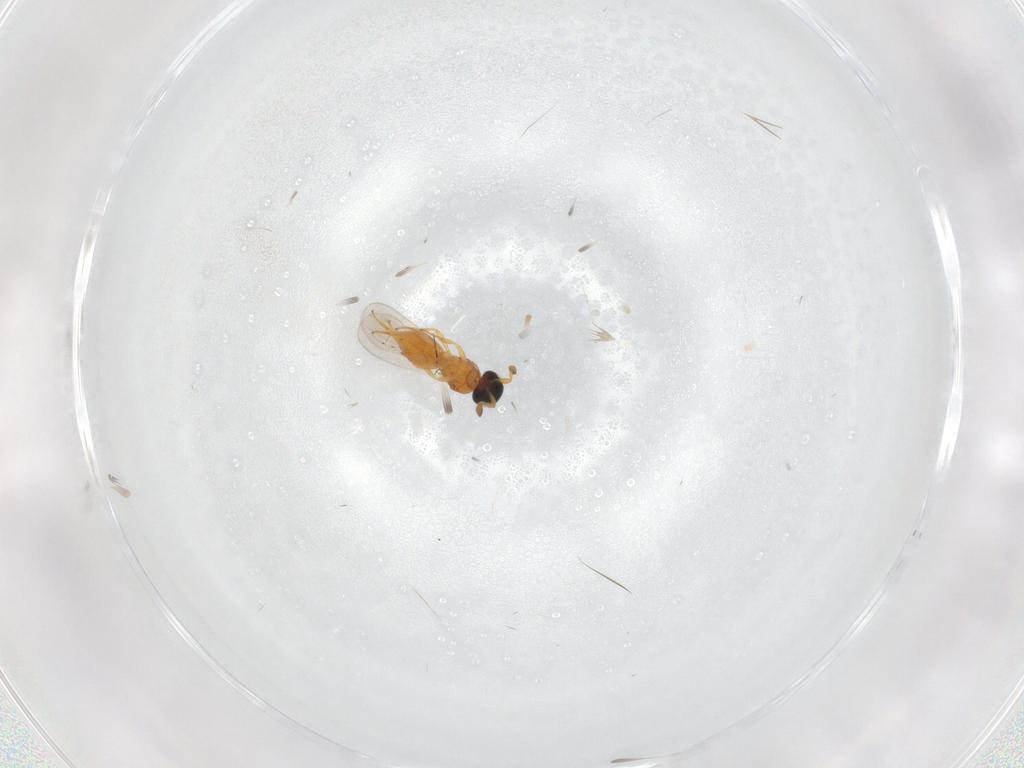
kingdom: Animalia
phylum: Arthropoda
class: Insecta
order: Hymenoptera
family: Platygastridae
